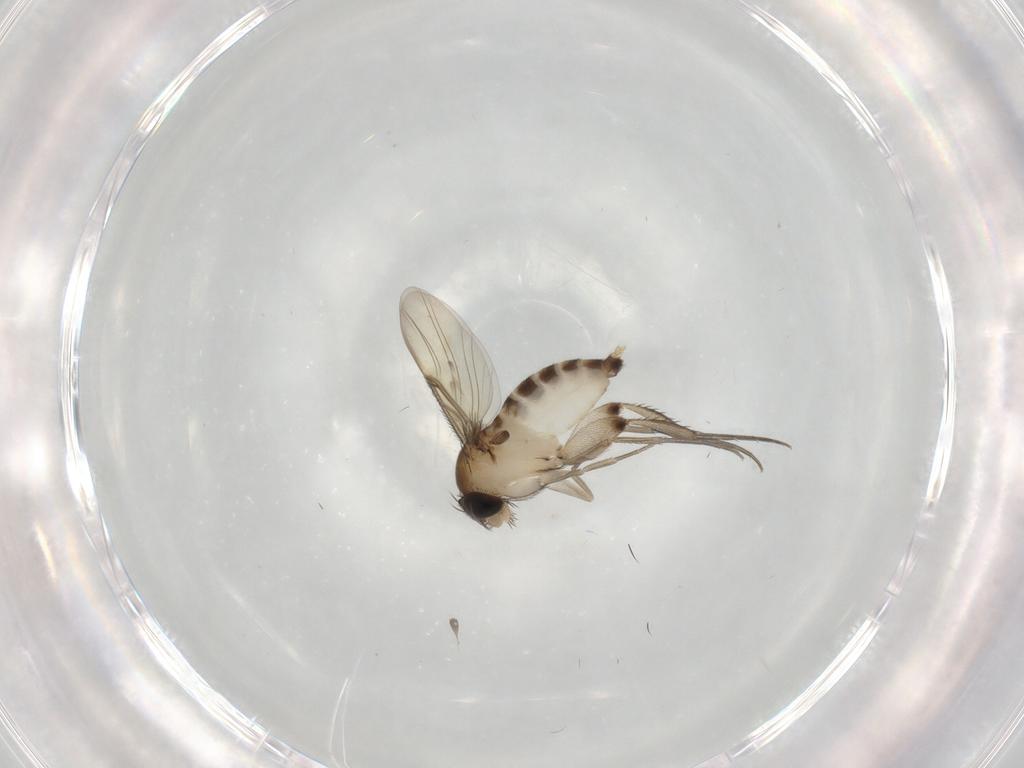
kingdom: Animalia
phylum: Arthropoda
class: Insecta
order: Diptera
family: Phoridae
